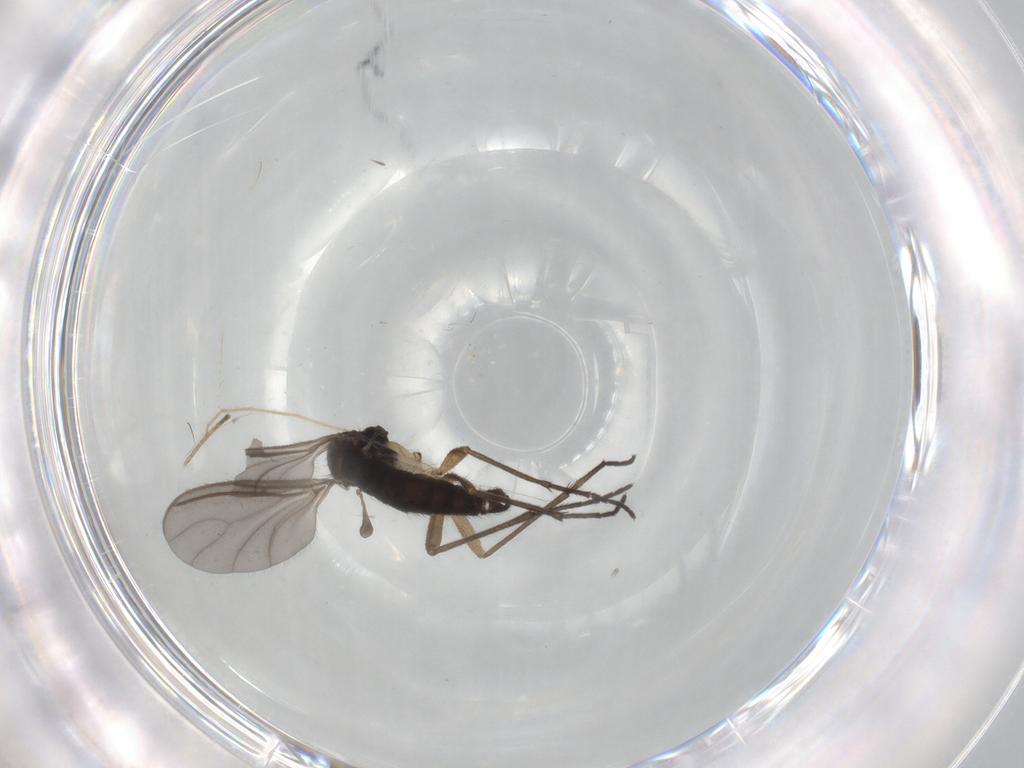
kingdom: Animalia
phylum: Arthropoda
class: Insecta
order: Diptera
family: Sciaridae
